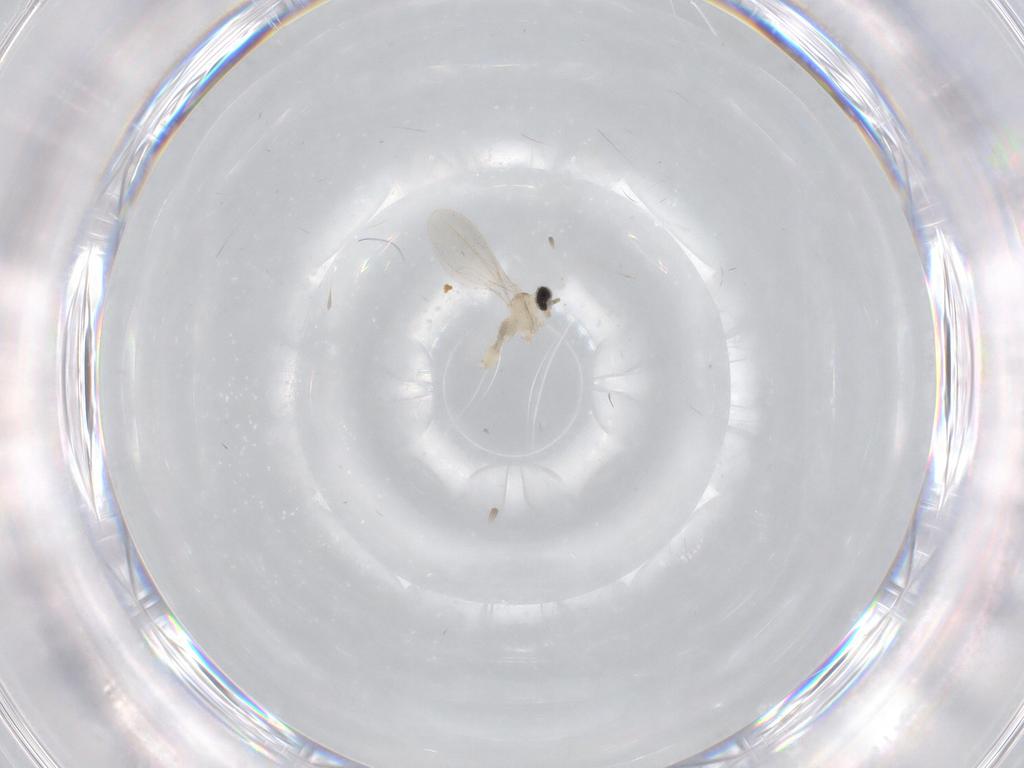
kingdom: Animalia
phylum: Arthropoda
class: Insecta
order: Diptera
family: Cecidomyiidae
